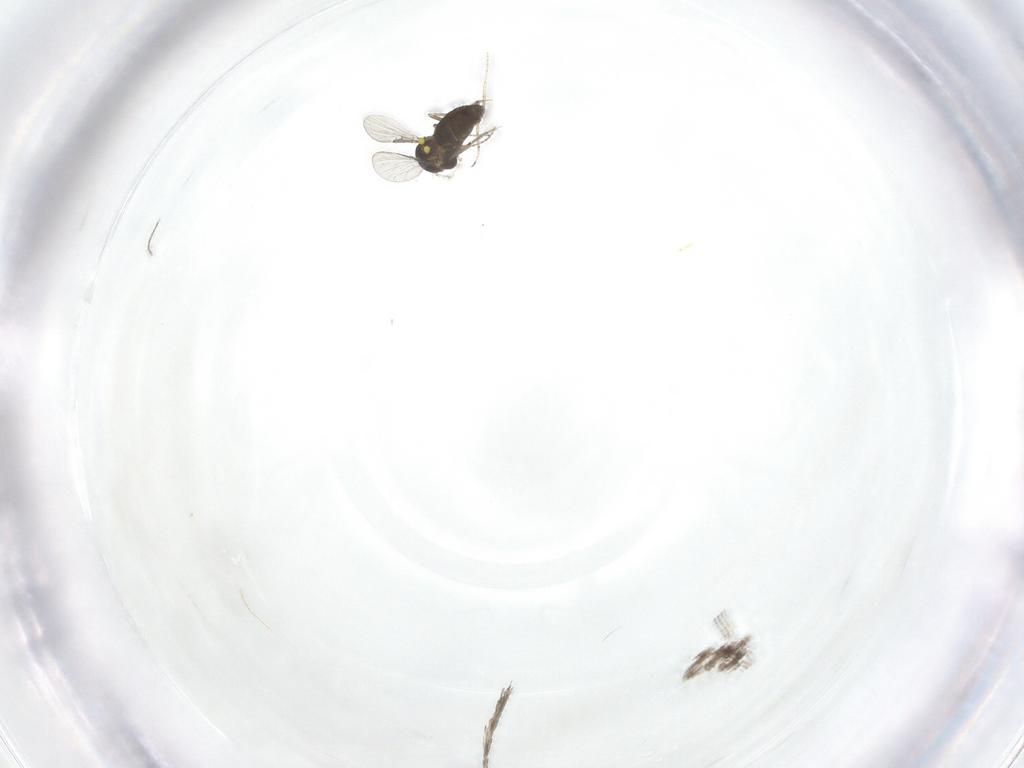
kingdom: Animalia
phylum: Arthropoda
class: Insecta
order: Diptera
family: Ceratopogonidae
